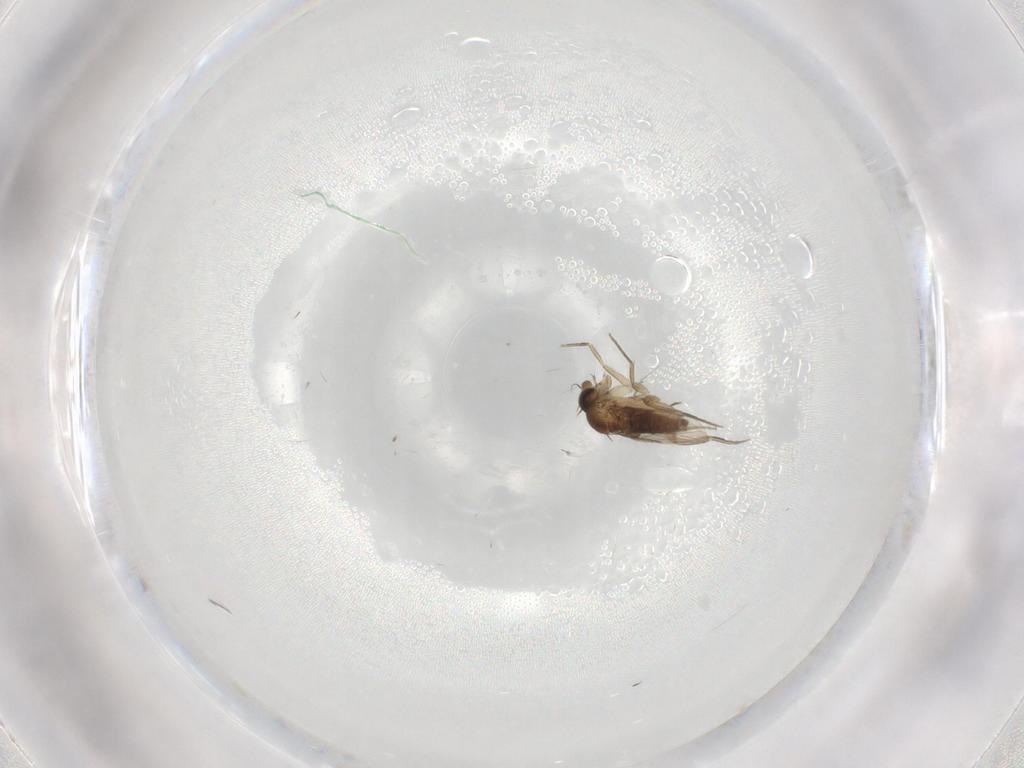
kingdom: Animalia
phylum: Arthropoda
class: Insecta
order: Diptera
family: Phoridae
